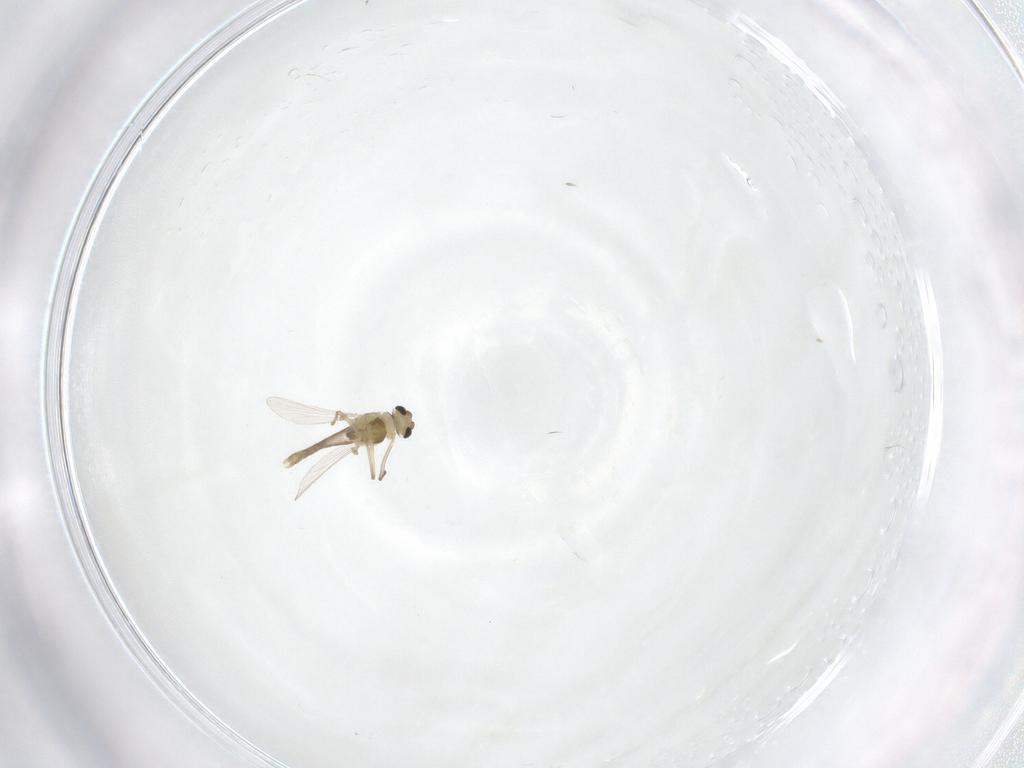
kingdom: Animalia
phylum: Arthropoda
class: Insecta
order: Diptera
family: Chironomidae
